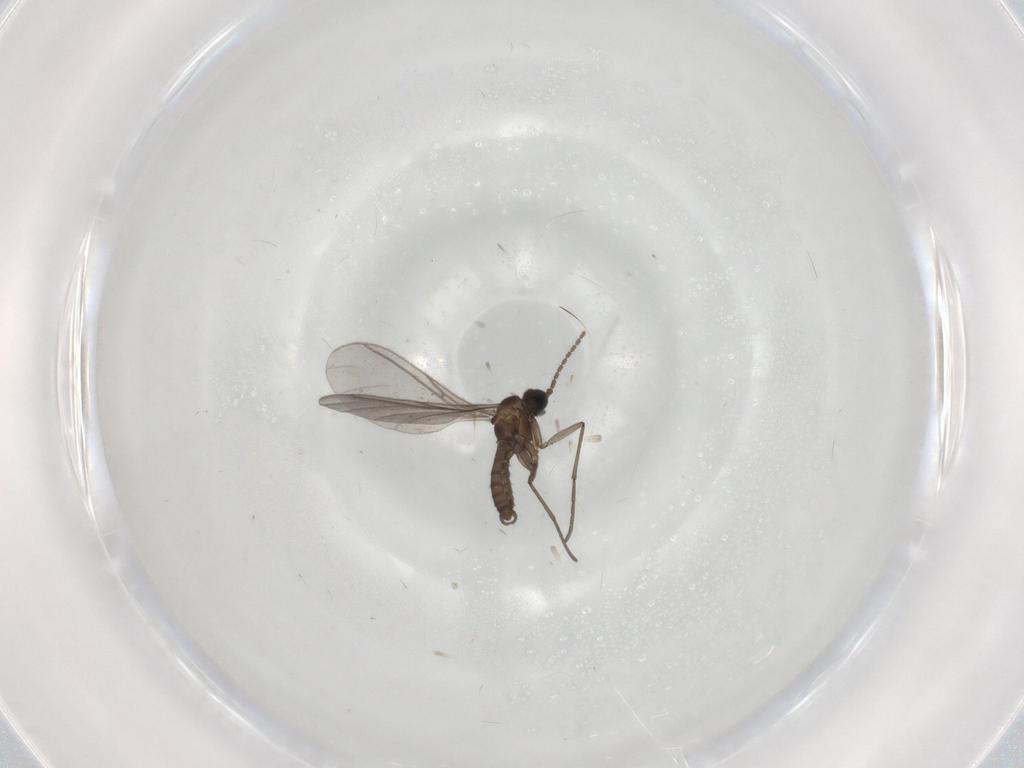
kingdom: Animalia
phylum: Arthropoda
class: Insecta
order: Diptera
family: Sciaridae
